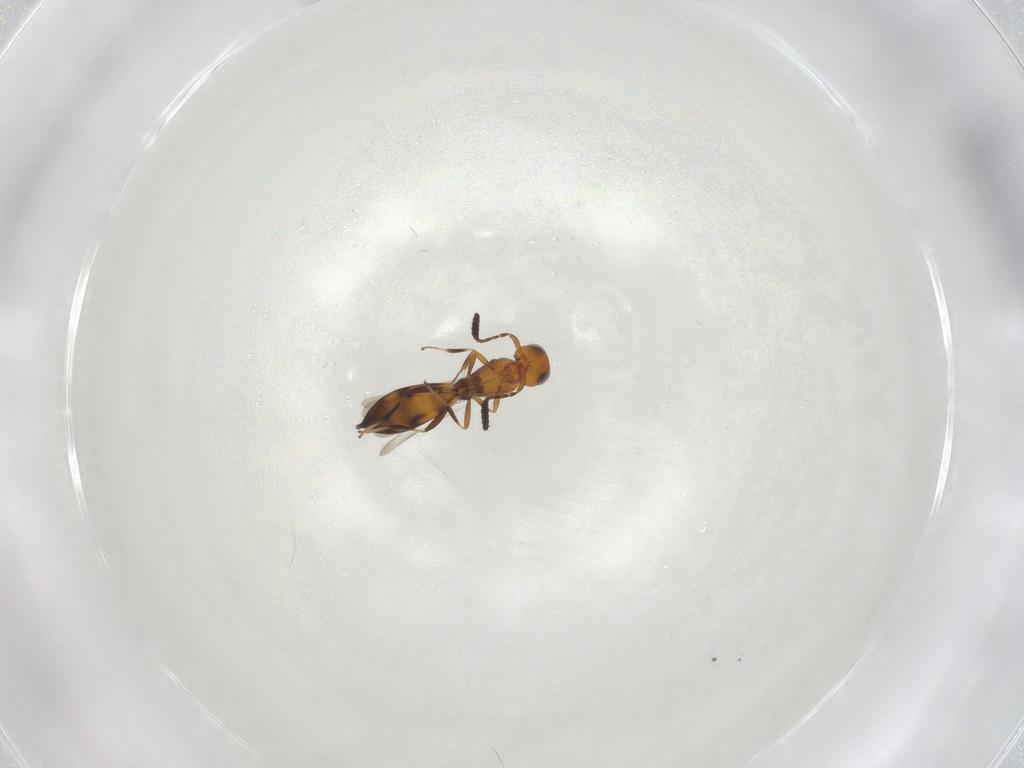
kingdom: Animalia
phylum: Arthropoda
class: Insecta
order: Hymenoptera
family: Scelionidae
